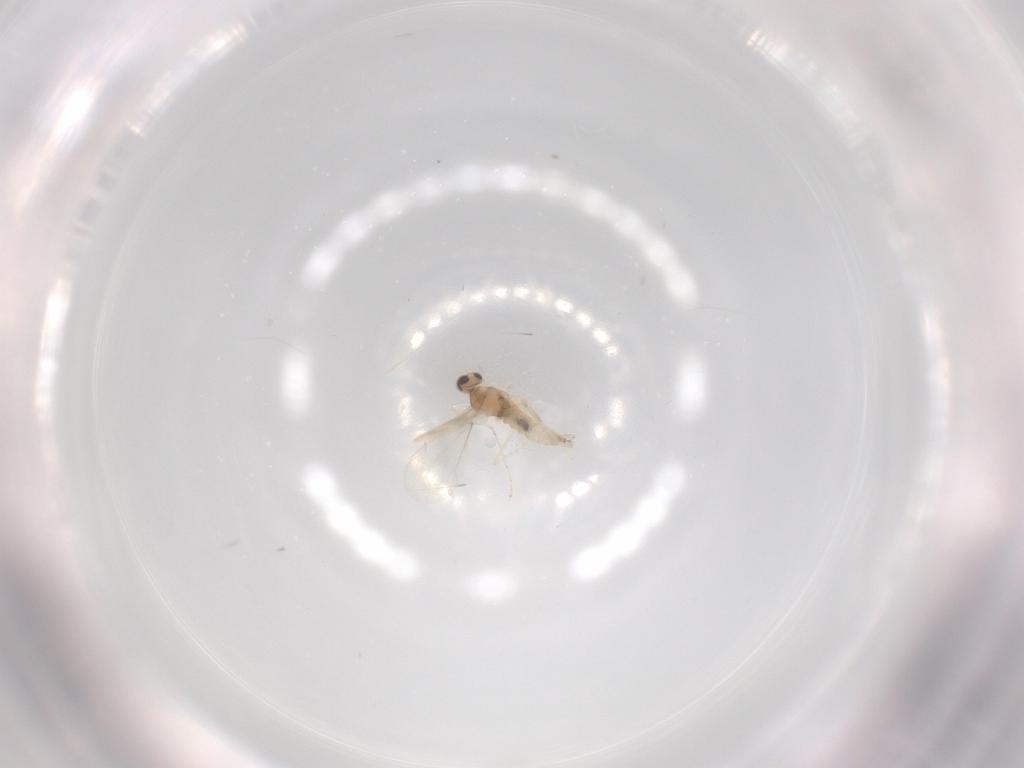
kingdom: Animalia
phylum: Arthropoda
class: Insecta
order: Diptera
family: Cecidomyiidae
